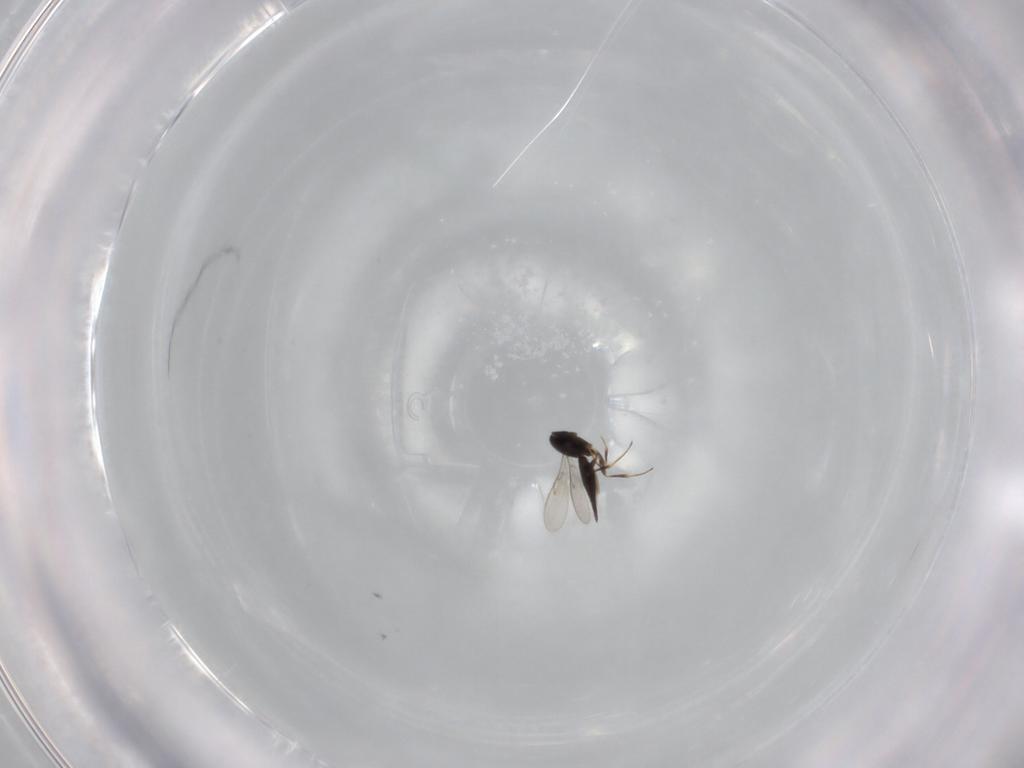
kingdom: Animalia
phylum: Arthropoda
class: Insecta
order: Hymenoptera
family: Scelionidae
